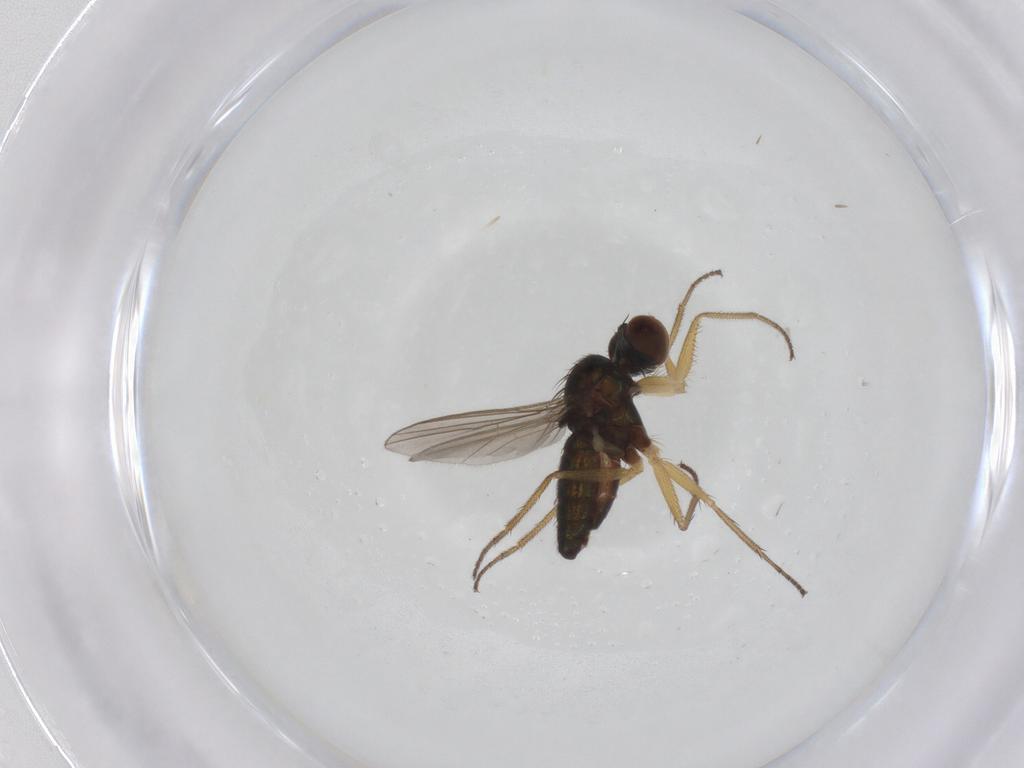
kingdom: Animalia
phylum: Arthropoda
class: Insecta
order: Diptera
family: Dolichopodidae
